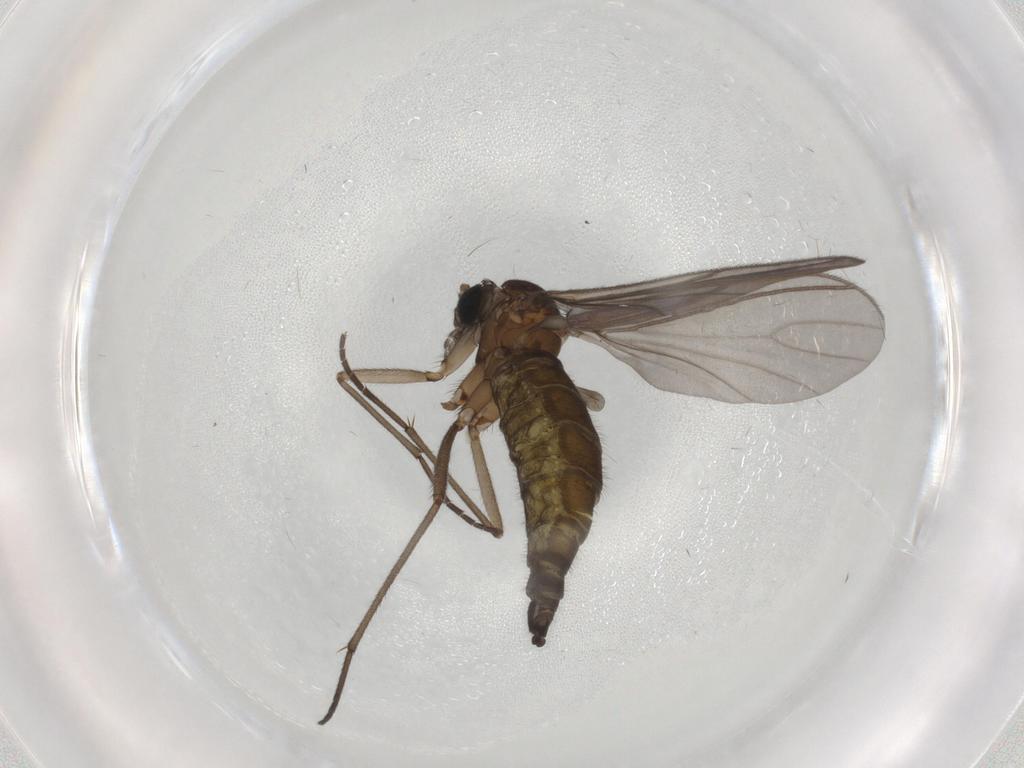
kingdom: Animalia
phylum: Arthropoda
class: Insecta
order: Diptera
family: Sciaridae
